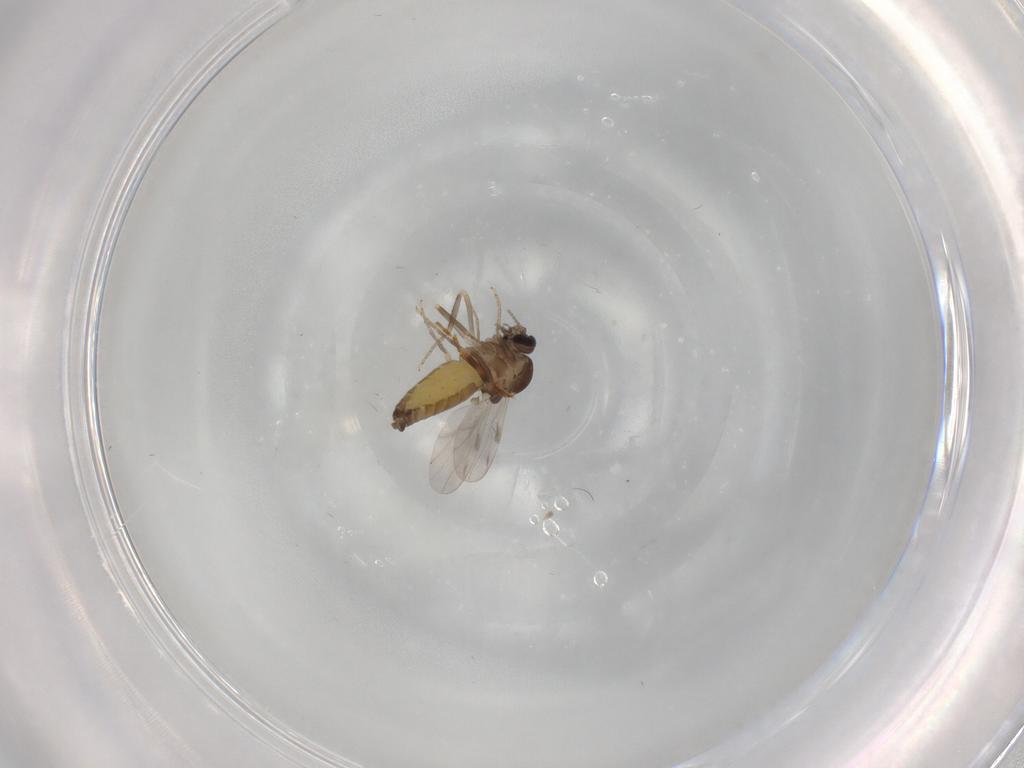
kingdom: Animalia
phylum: Arthropoda
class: Insecta
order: Diptera
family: Ceratopogonidae
